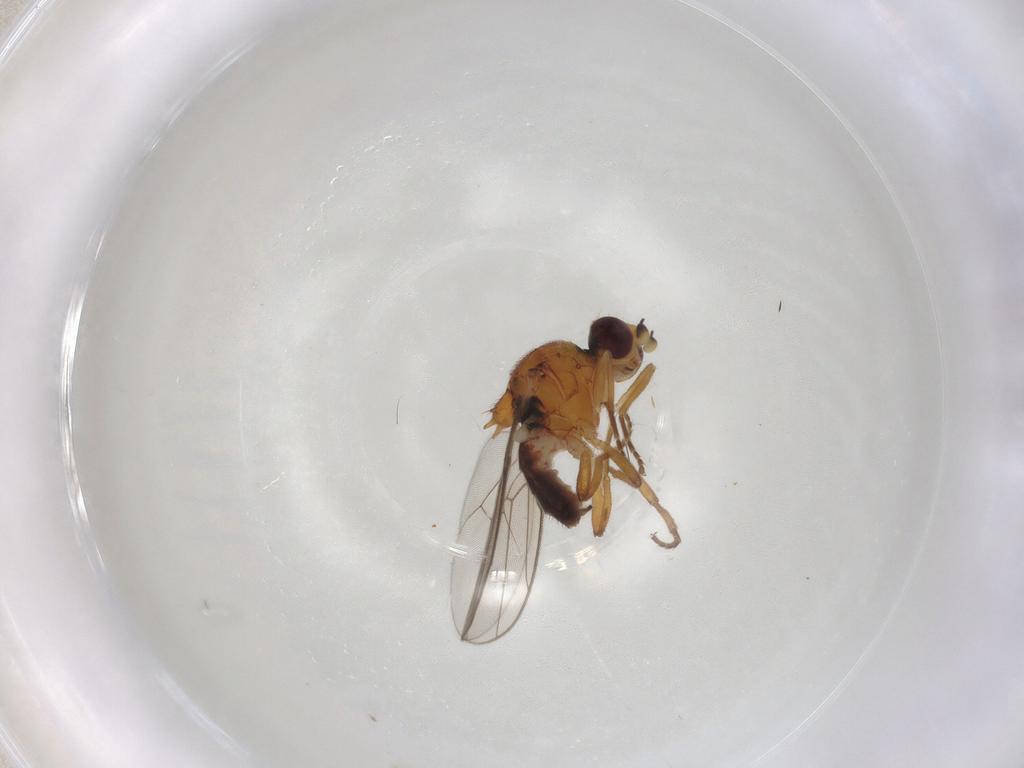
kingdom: Animalia
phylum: Arthropoda
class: Insecta
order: Diptera
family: Chloropidae
